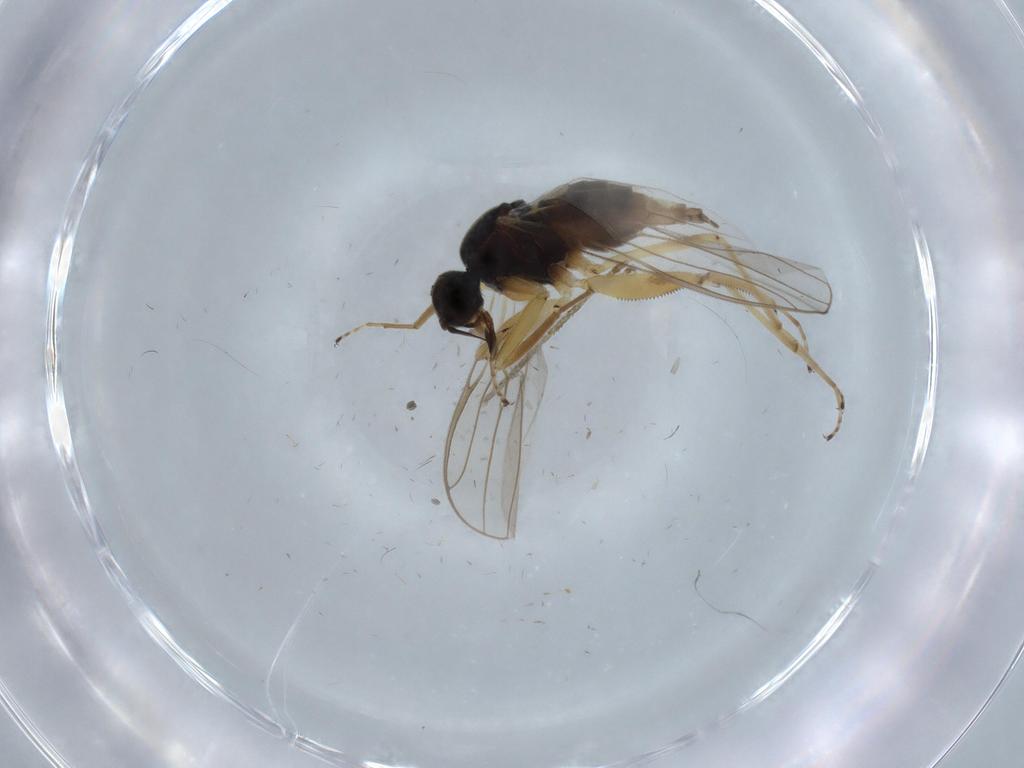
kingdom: Animalia
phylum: Arthropoda
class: Insecta
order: Diptera
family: Hybotidae
